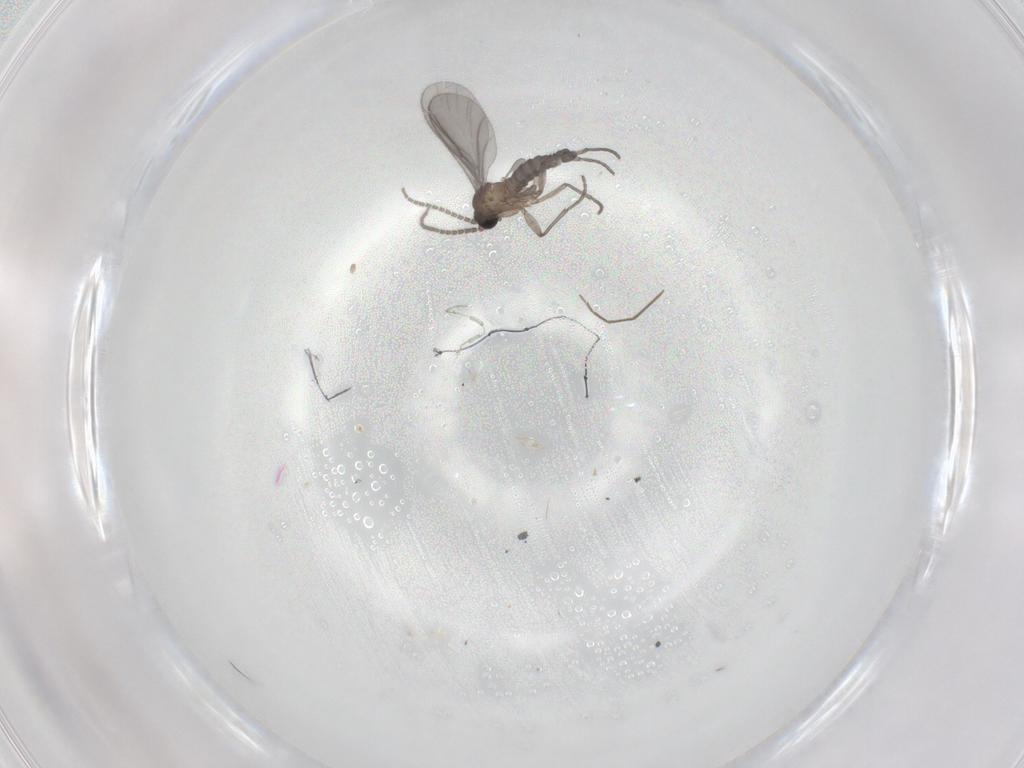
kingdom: Animalia
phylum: Arthropoda
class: Insecta
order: Diptera
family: Sciaridae
